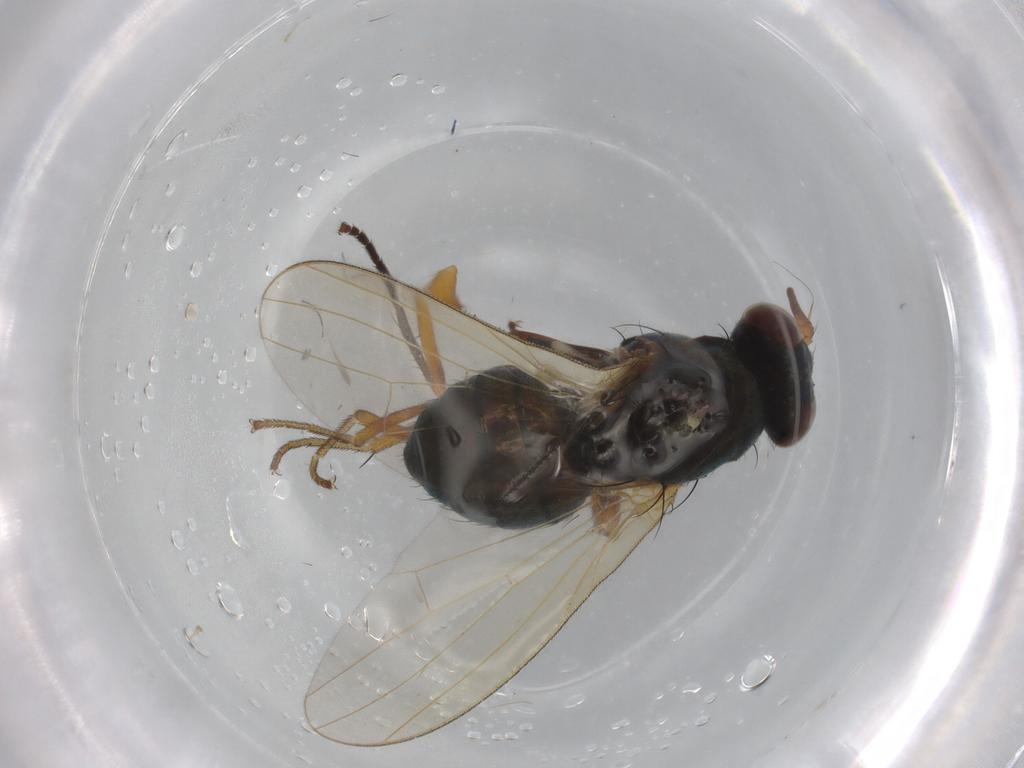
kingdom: Animalia
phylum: Arthropoda
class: Insecta
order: Diptera
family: Lauxaniidae
